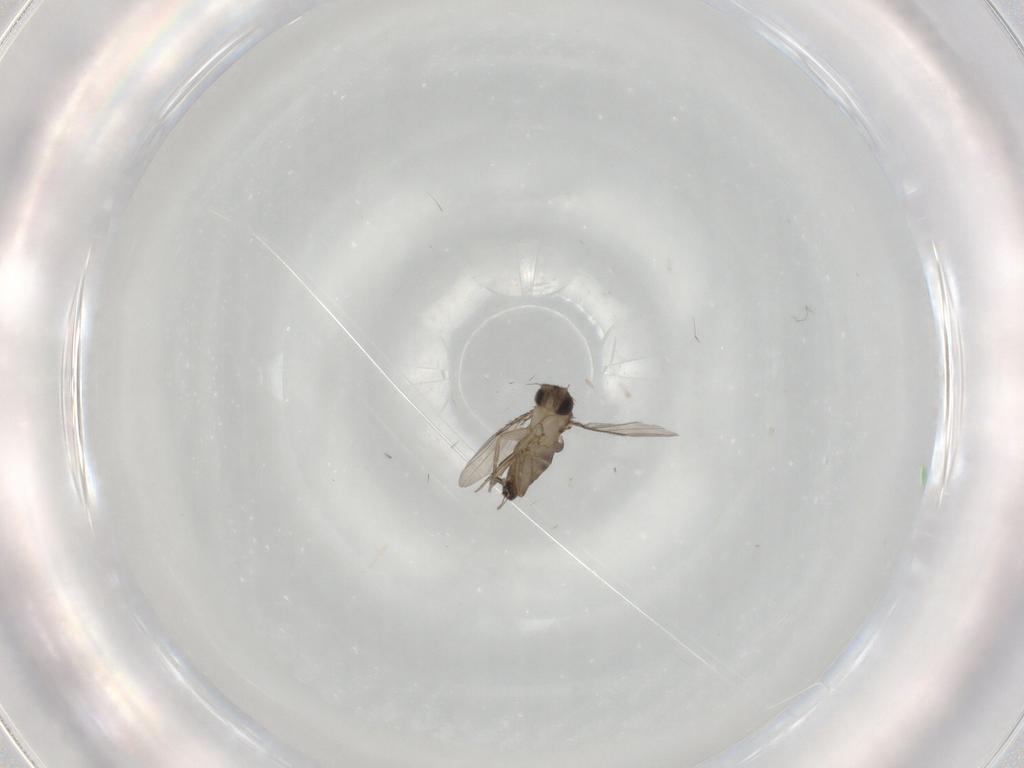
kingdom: Animalia
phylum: Arthropoda
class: Insecta
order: Diptera
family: Phoridae
